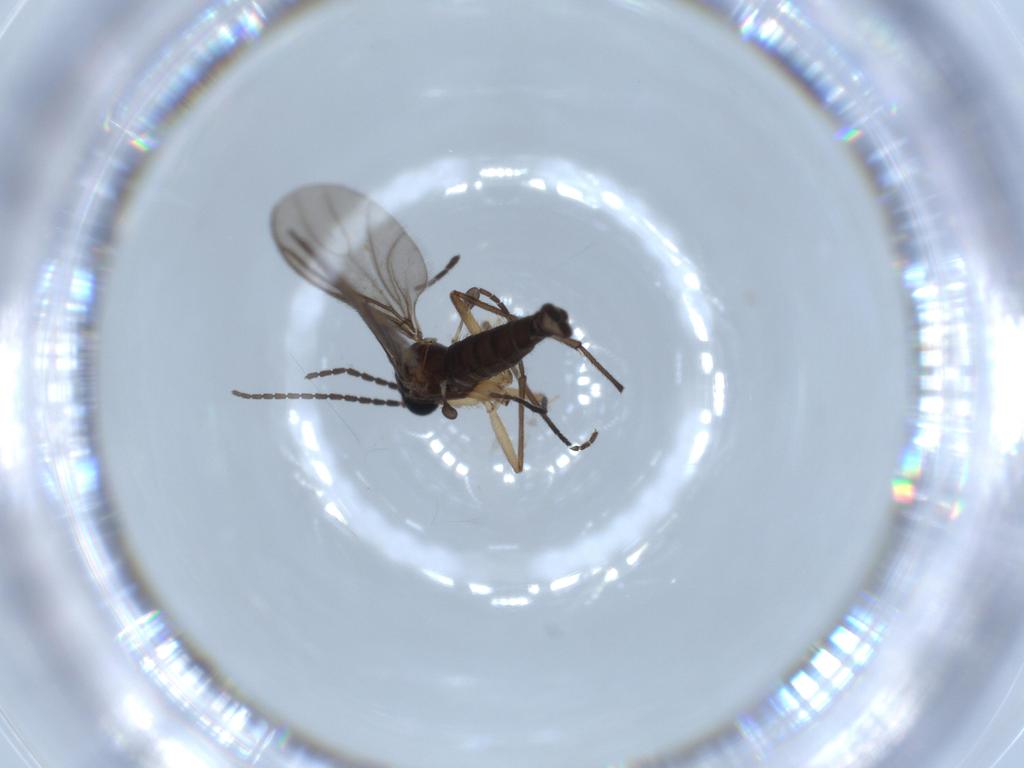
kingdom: Animalia
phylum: Arthropoda
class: Insecta
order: Diptera
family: Sciaridae
